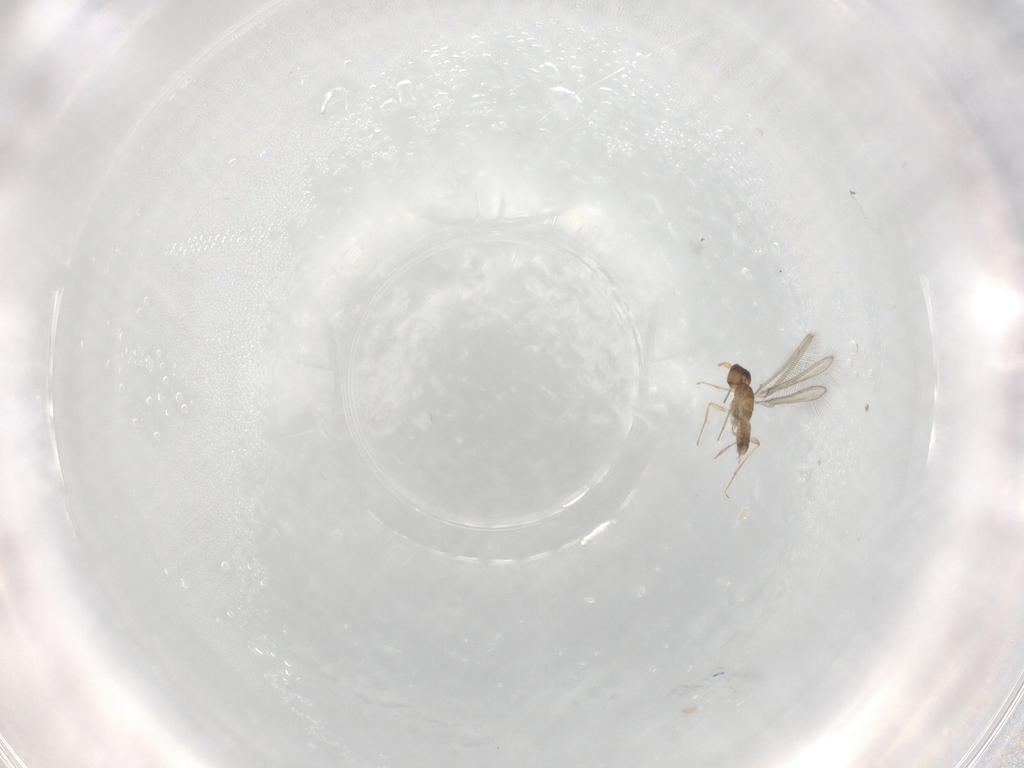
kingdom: Animalia
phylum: Arthropoda
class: Insecta
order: Hymenoptera
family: Mymaridae
